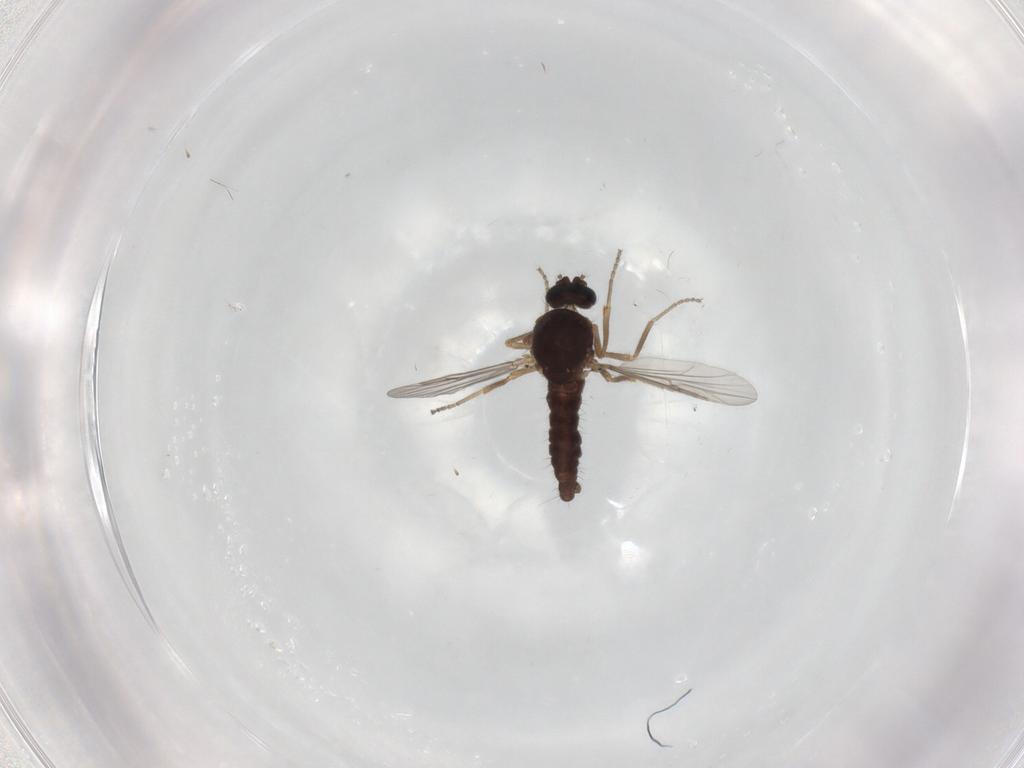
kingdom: Animalia
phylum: Arthropoda
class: Insecta
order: Diptera
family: Ceratopogonidae
